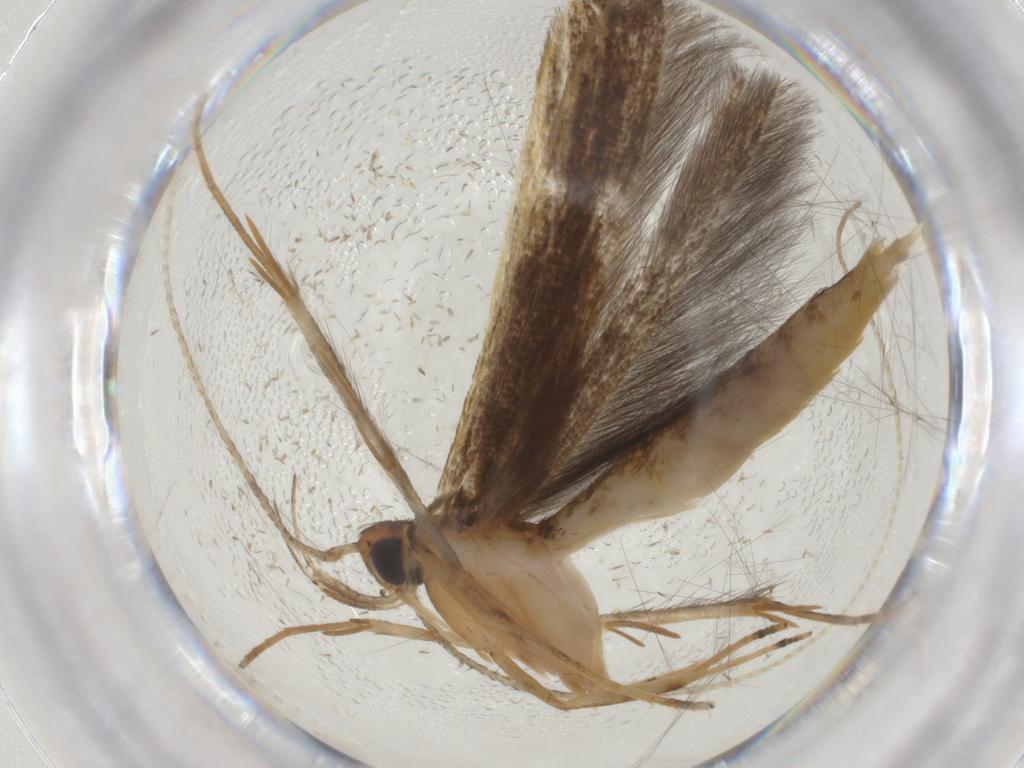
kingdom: Animalia
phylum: Arthropoda
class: Insecta
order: Lepidoptera
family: Pterolonchidae
